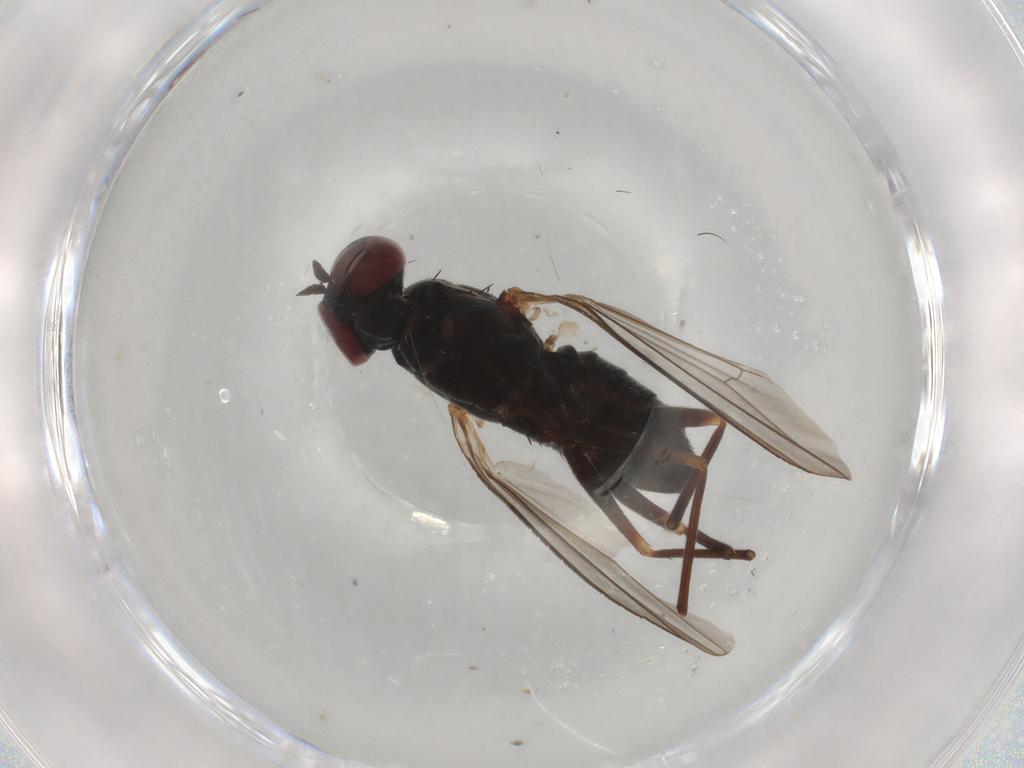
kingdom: Animalia
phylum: Arthropoda
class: Insecta
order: Diptera
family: Dolichopodidae
